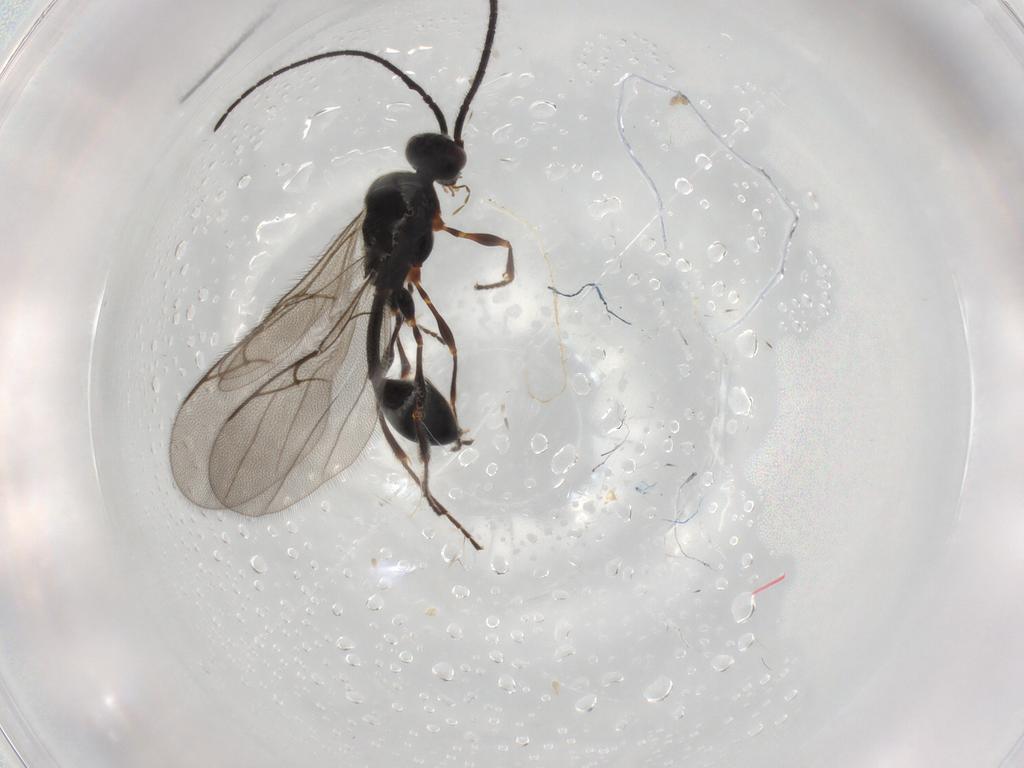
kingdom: Animalia
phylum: Arthropoda
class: Insecta
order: Hymenoptera
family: Diapriidae
